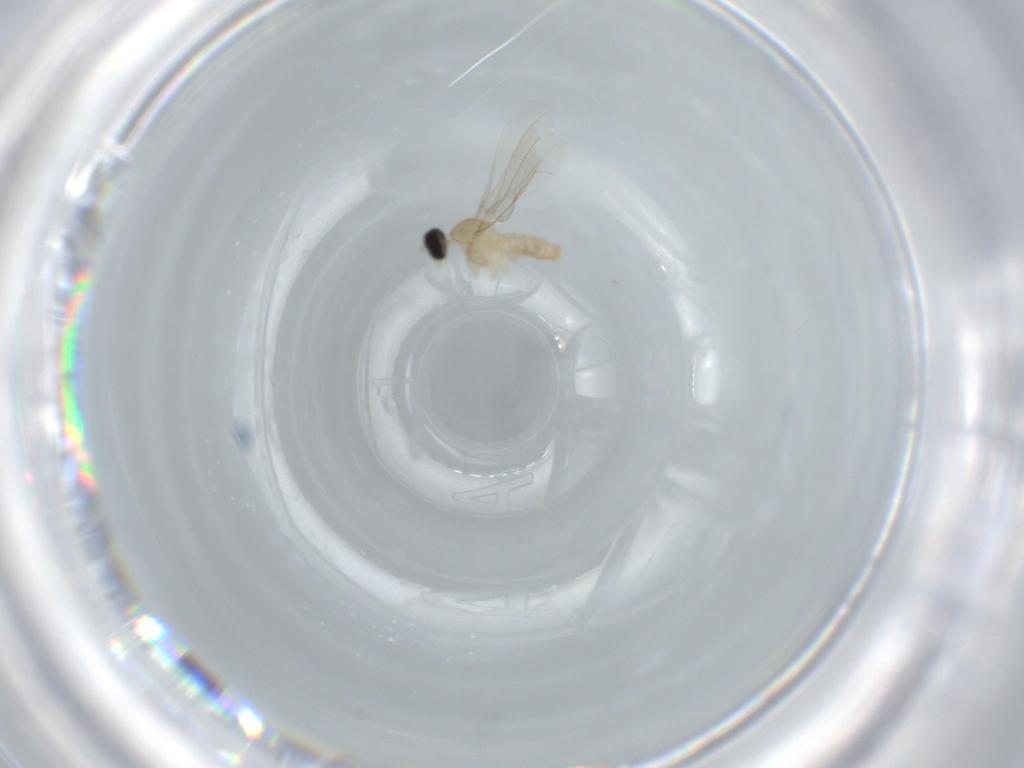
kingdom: Animalia
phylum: Arthropoda
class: Insecta
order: Diptera
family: Cecidomyiidae
